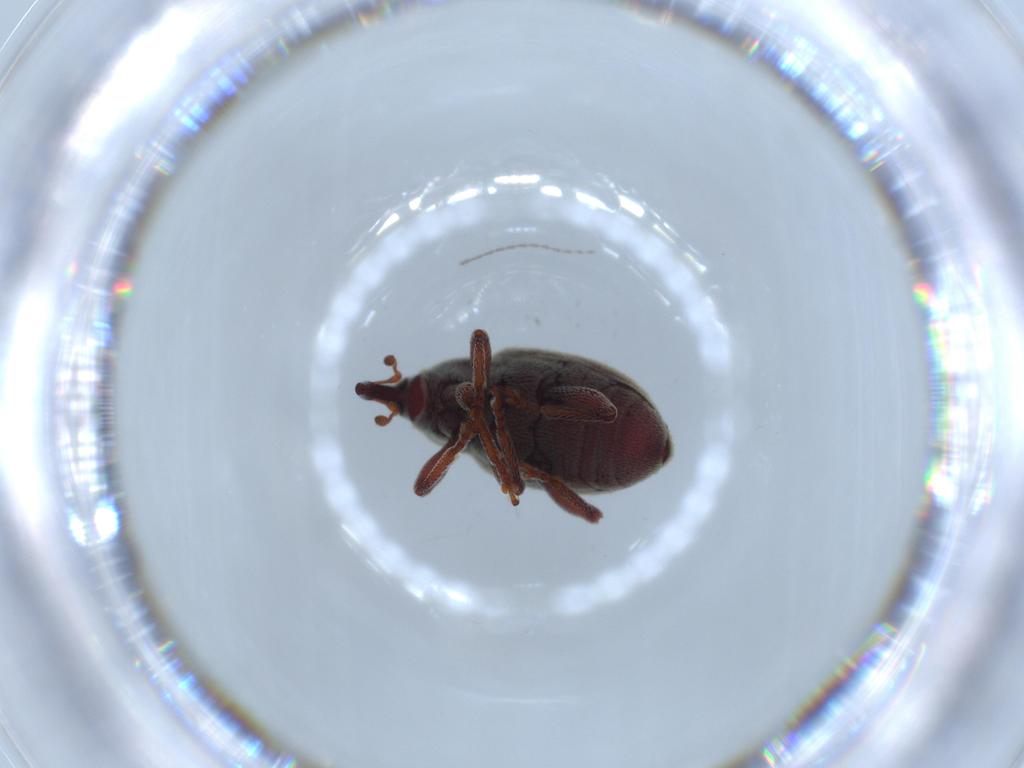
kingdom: Animalia
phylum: Arthropoda
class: Insecta
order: Coleoptera
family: Curculionidae
